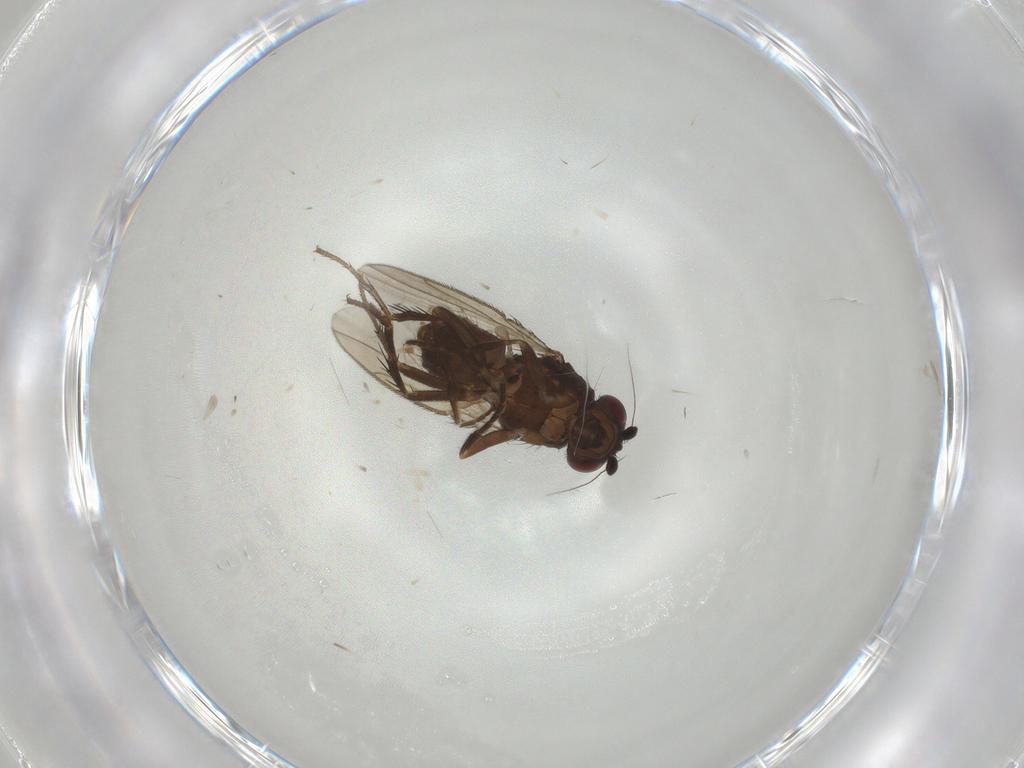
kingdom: Animalia
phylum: Arthropoda
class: Insecta
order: Diptera
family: Sphaeroceridae
